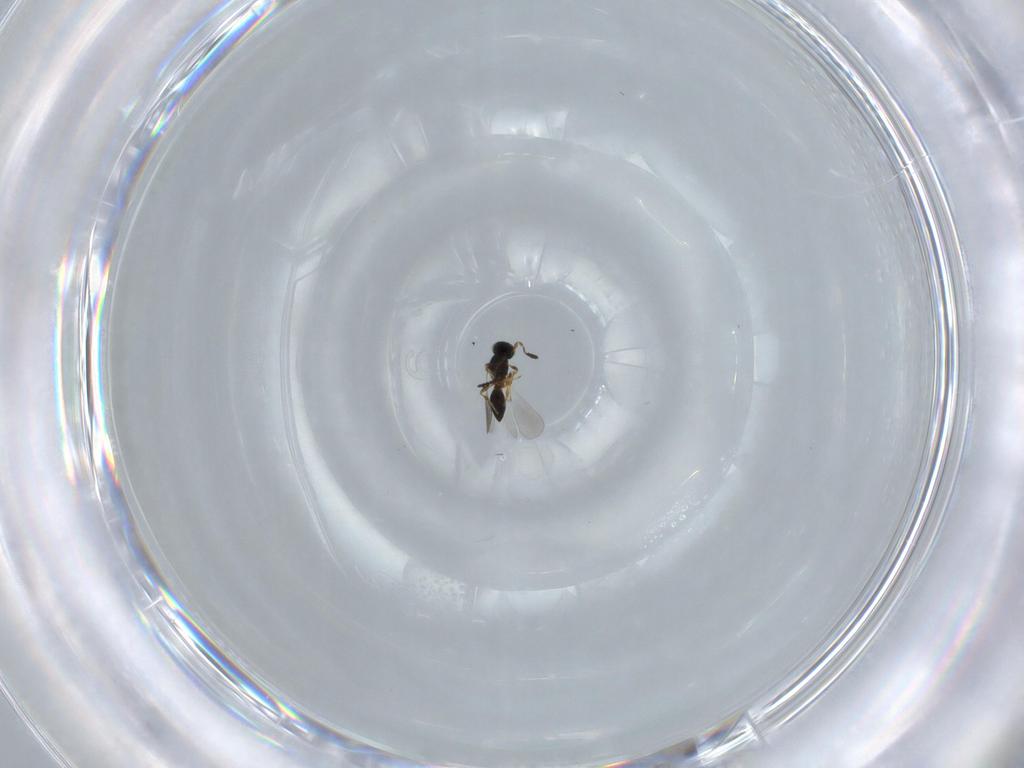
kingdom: Animalia
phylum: Arthropoda
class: Insecta
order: Hymenoptera
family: Platygastridae
